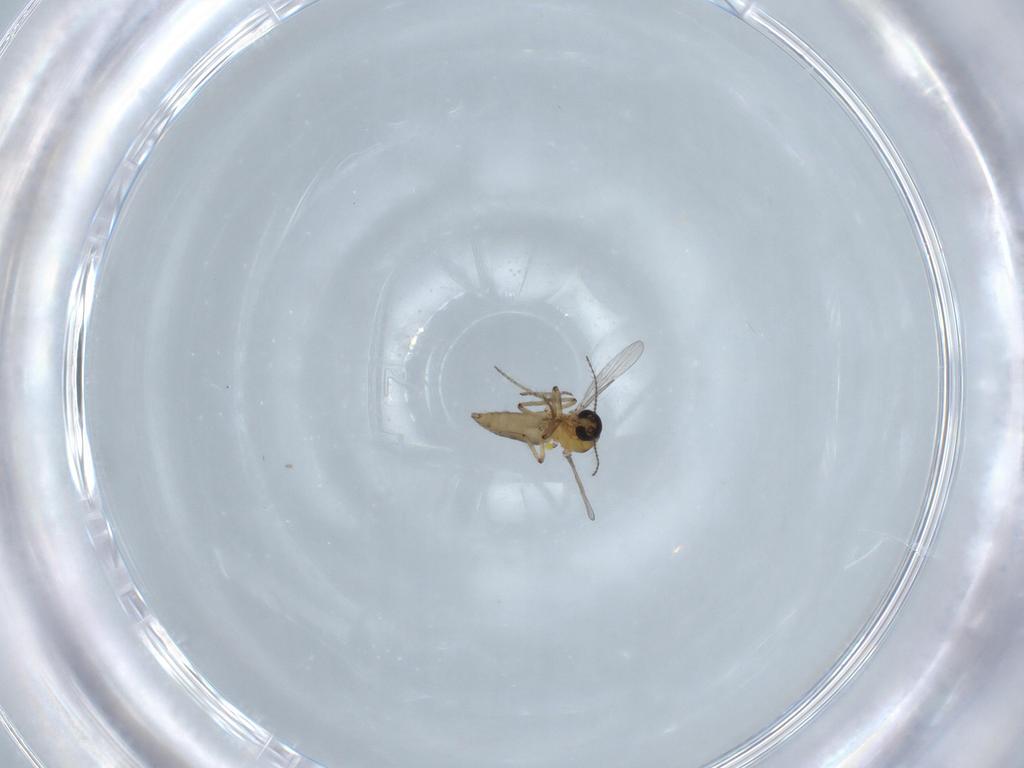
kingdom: Animalia
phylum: Arthropoda
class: Insecta
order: Diptera
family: Ceratopogonidae
